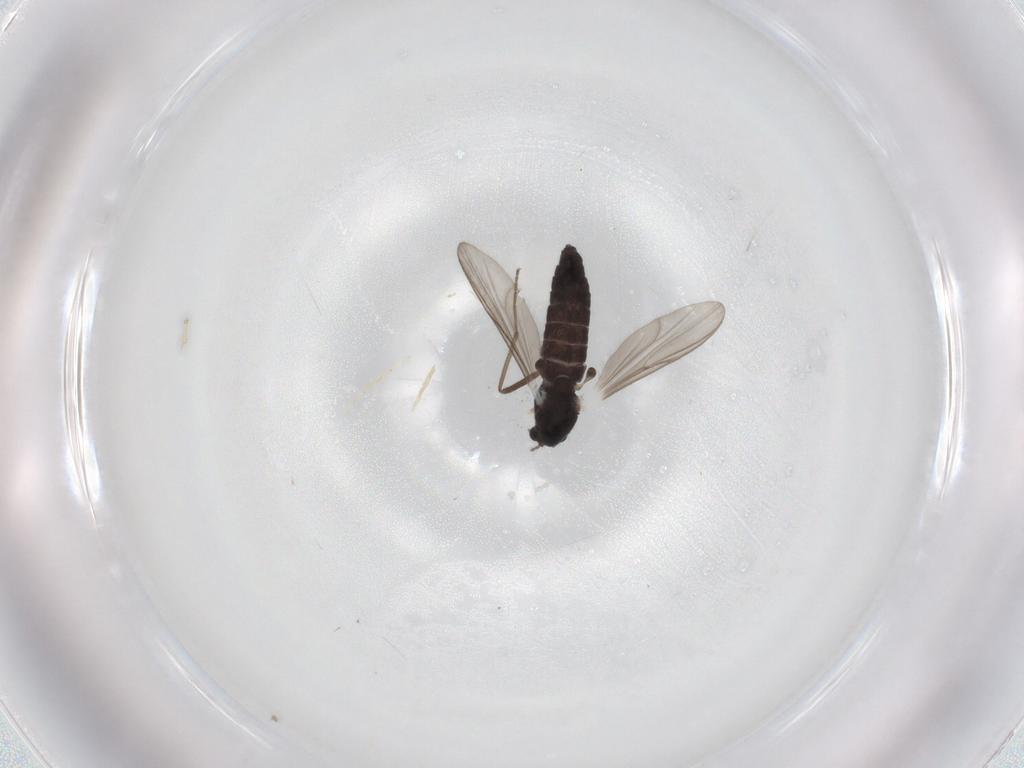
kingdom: Animalia
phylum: Arthropoda
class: Insecta
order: Diptera
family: Chironomidae
